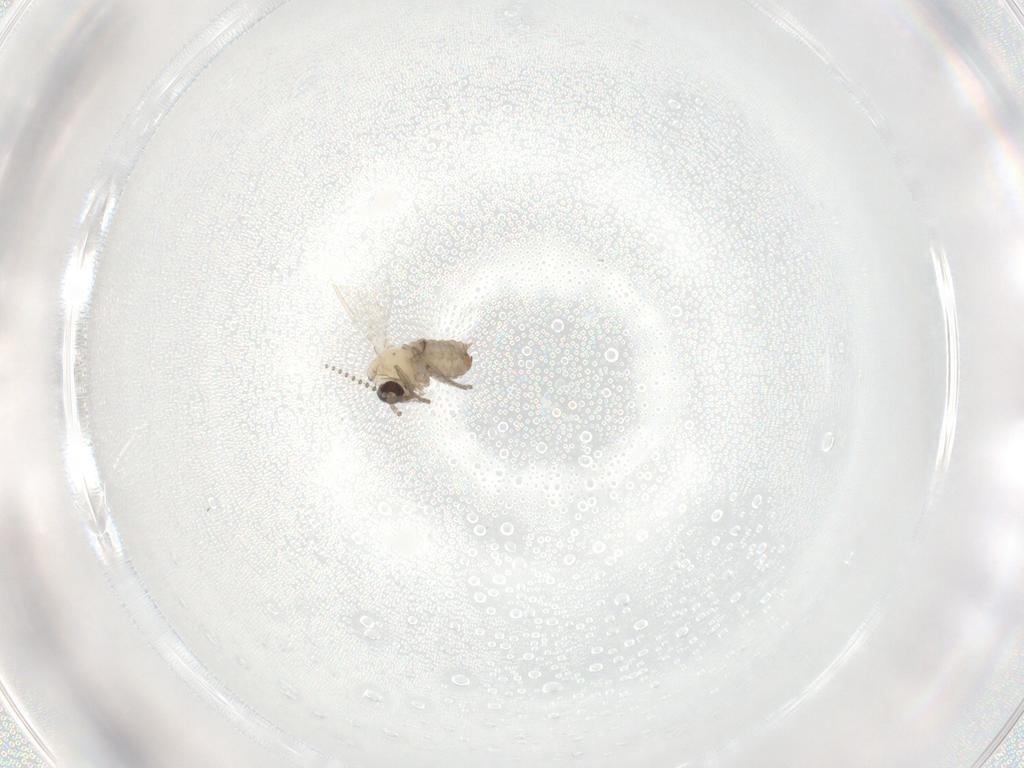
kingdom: Animalia
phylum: Arthropoda
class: Insecta
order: Diptera
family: Psychodidae
